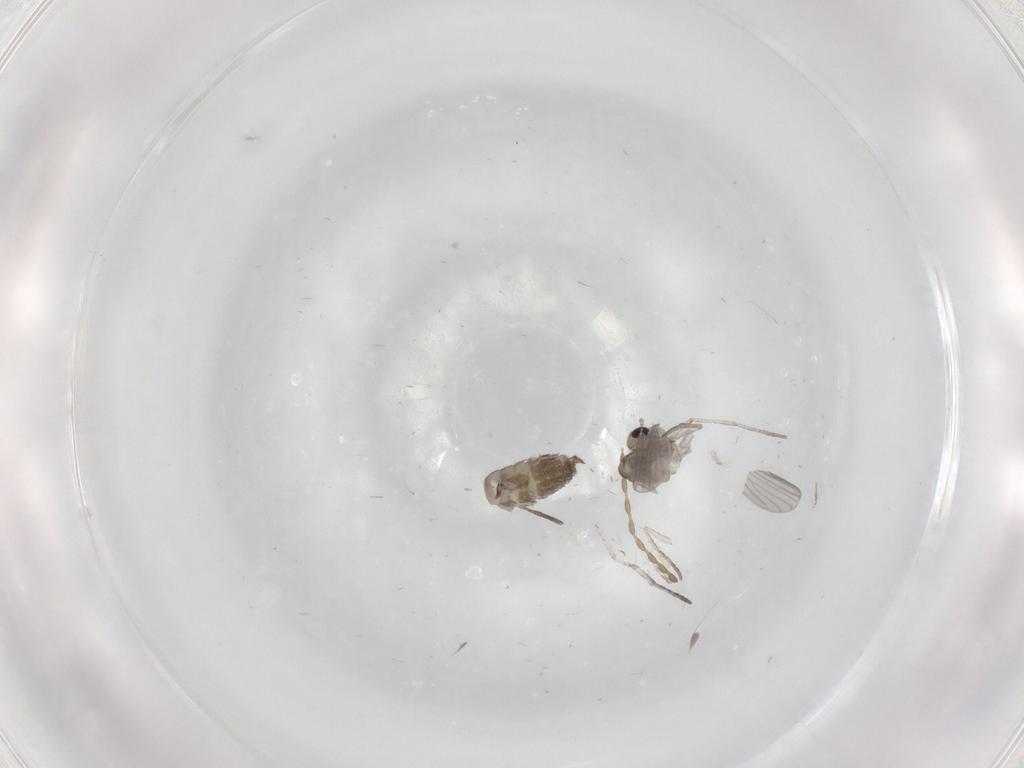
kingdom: Animalia
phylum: Arthropoda
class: Insecta
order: Diptera
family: Psychodidae
